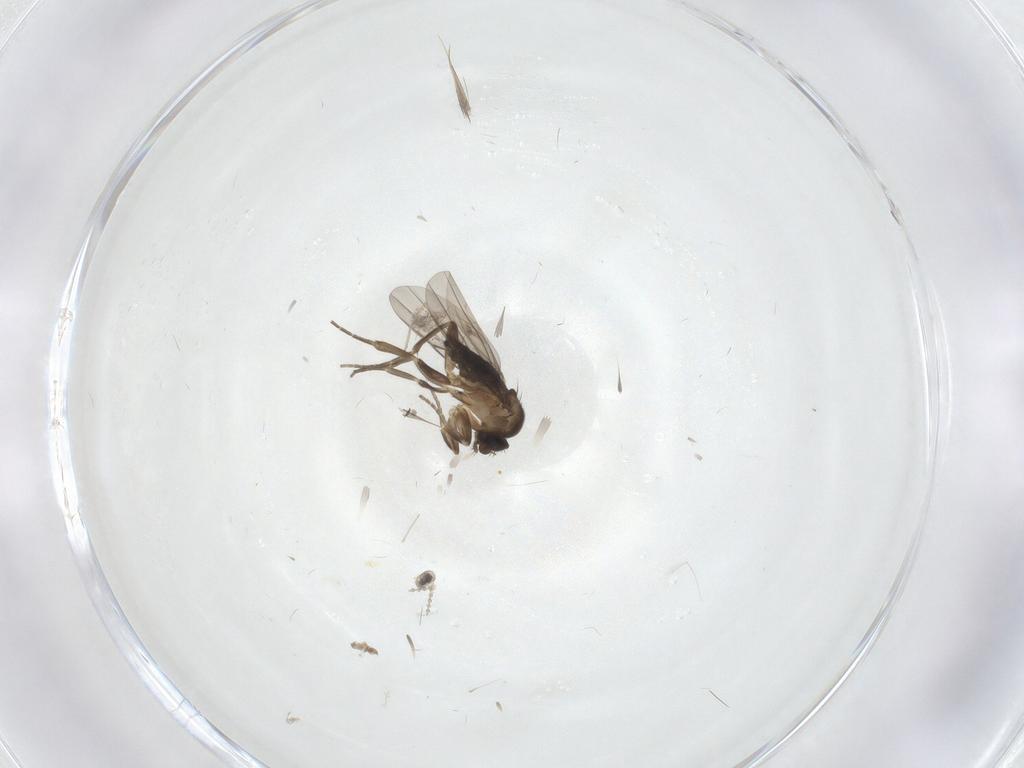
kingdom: Animalia
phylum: Arthropoda
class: Insecta
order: Diptera
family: Cecidomyiidae
